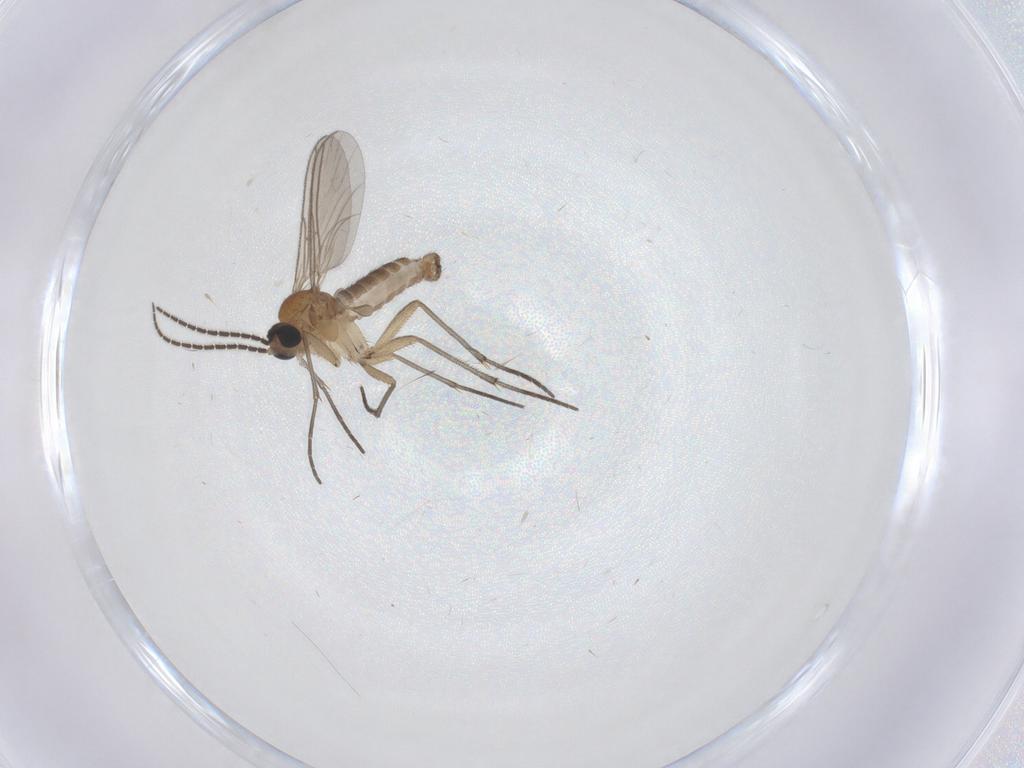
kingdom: Animalia
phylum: Arthropoda
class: Insecta
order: Diptera
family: Sciaridae
